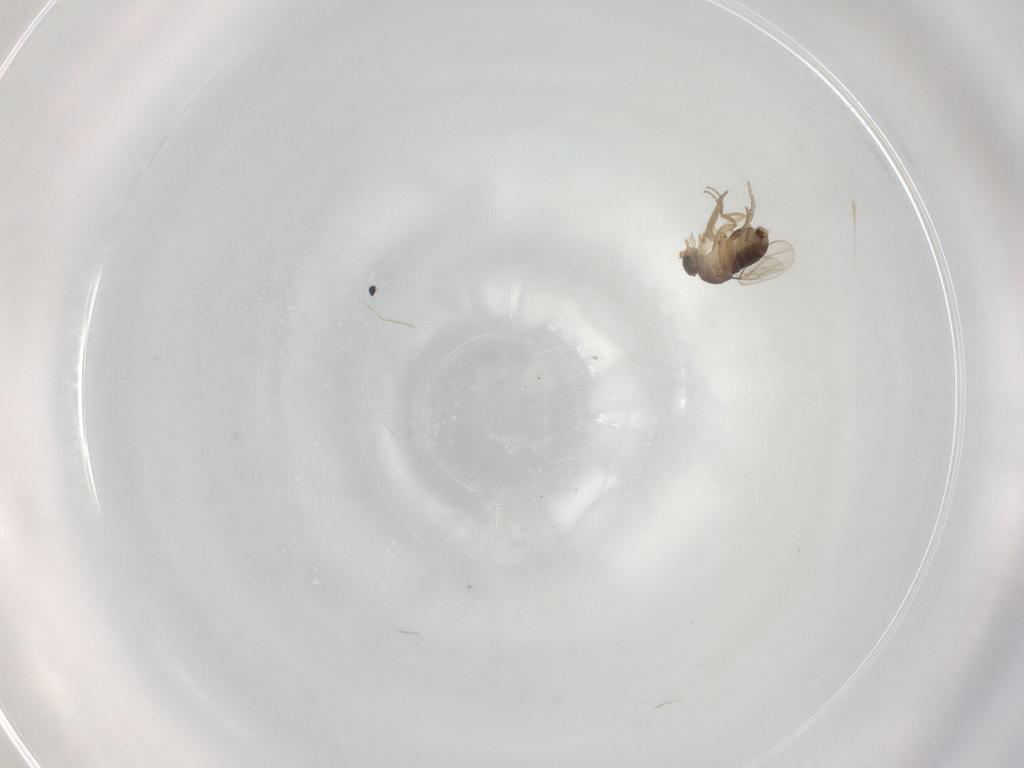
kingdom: Animalia
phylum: Arthropoda
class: Insecta
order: Diptera
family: Phoridae
